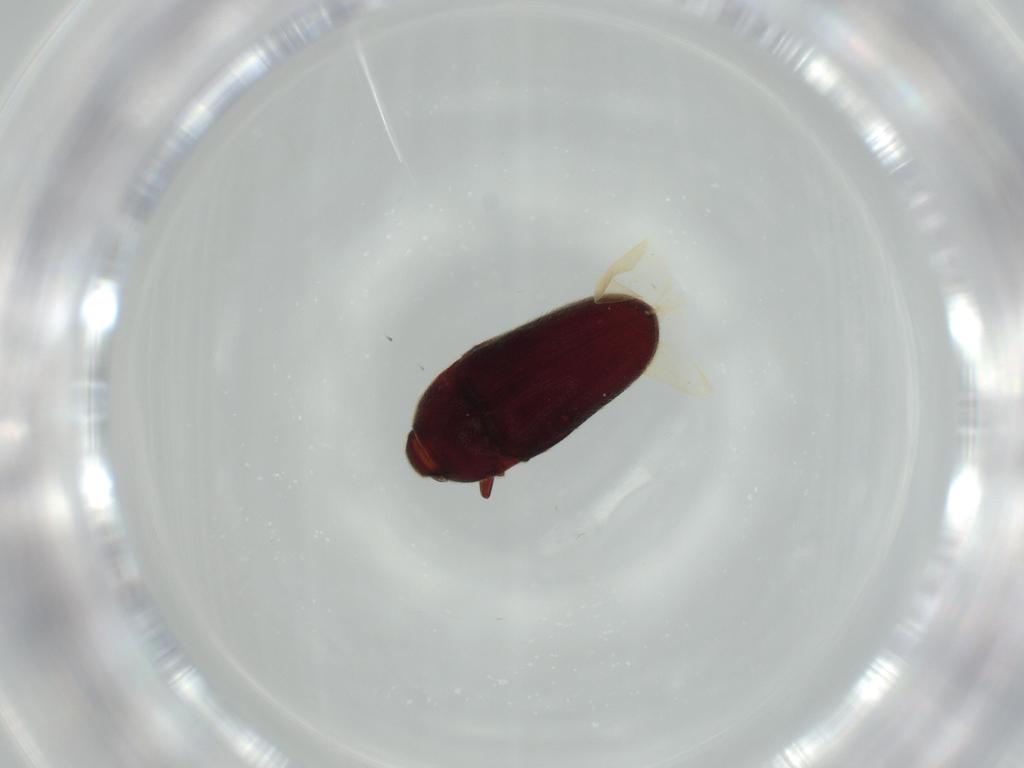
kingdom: Animalia
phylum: Arthropoda
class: Insecta
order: Coleoptera
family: Throscidae
